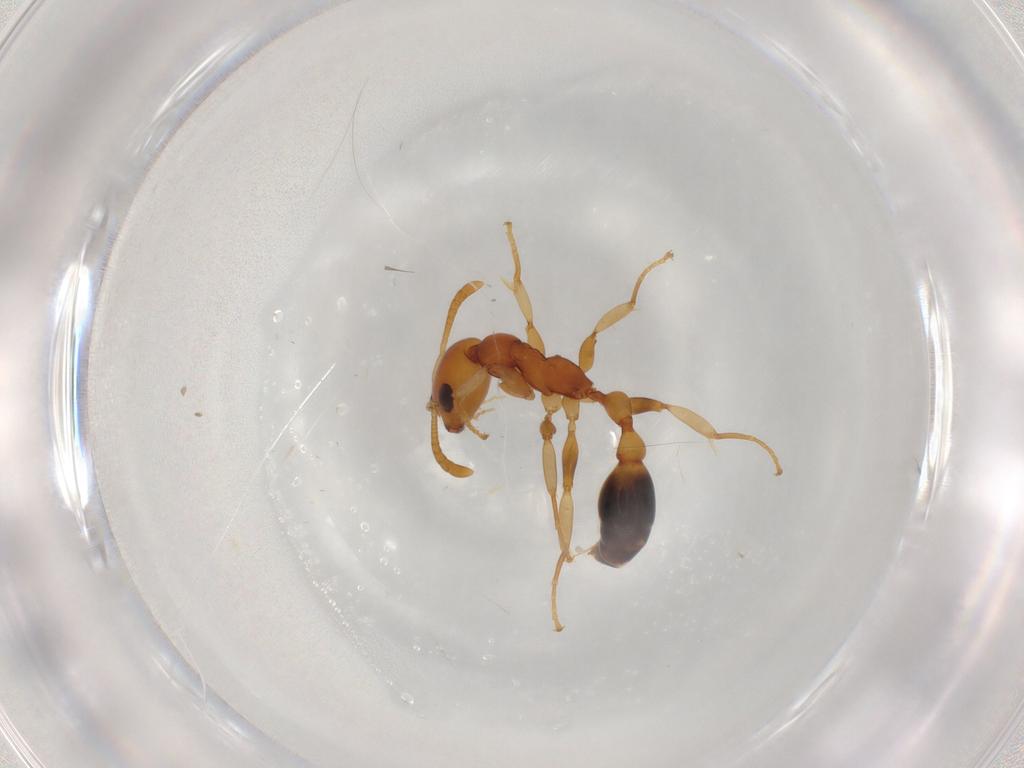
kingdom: Animalia
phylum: Arthropoda
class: Insecta
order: Hymenoptera
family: Formicidae
